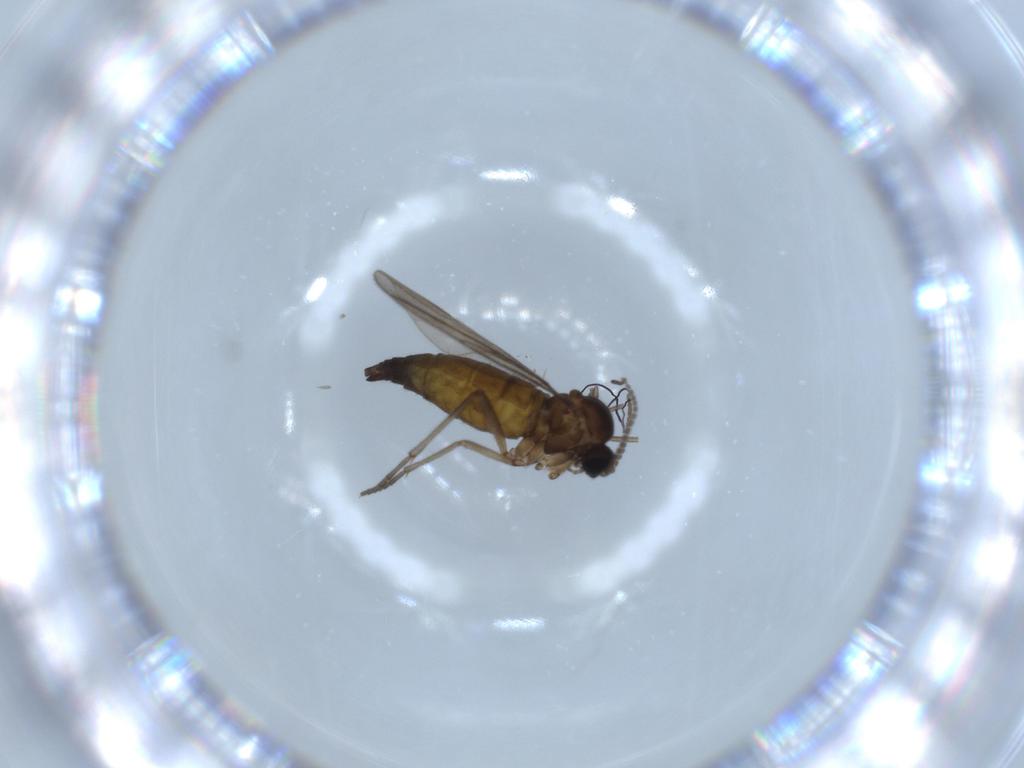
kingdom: Animalia
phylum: Arthropoda
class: Insecta
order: Diptera
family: Sciaridae
